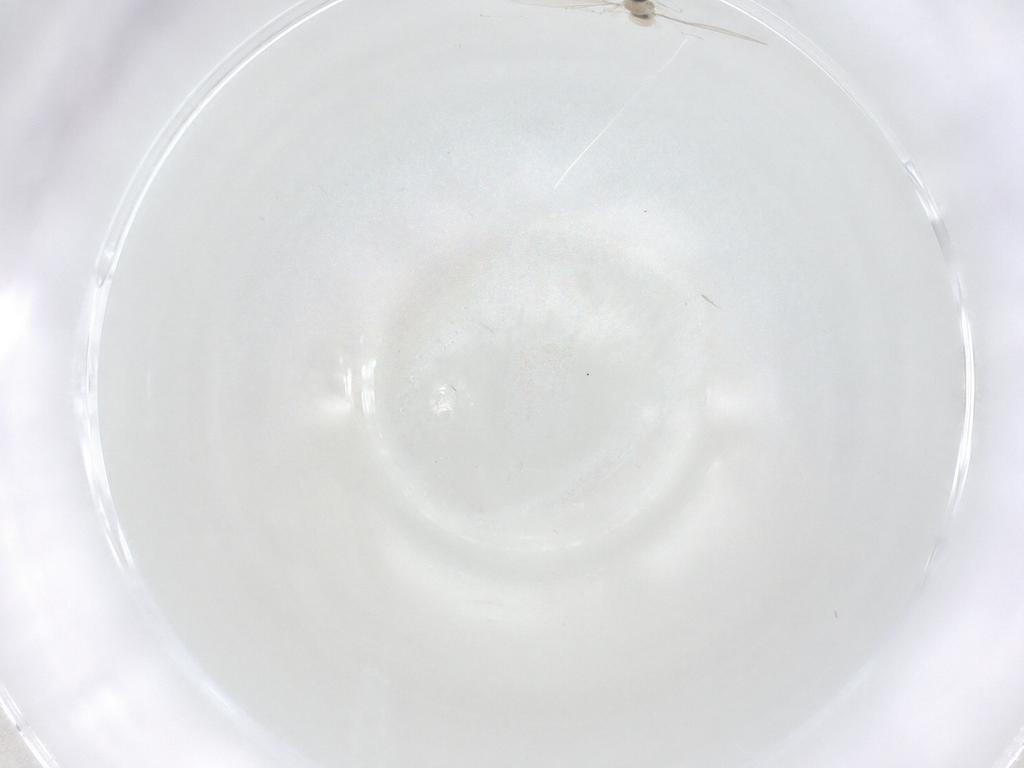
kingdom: Animalia
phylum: Arthropoda
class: Insecta
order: Diptera
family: Cecidomyiidae
